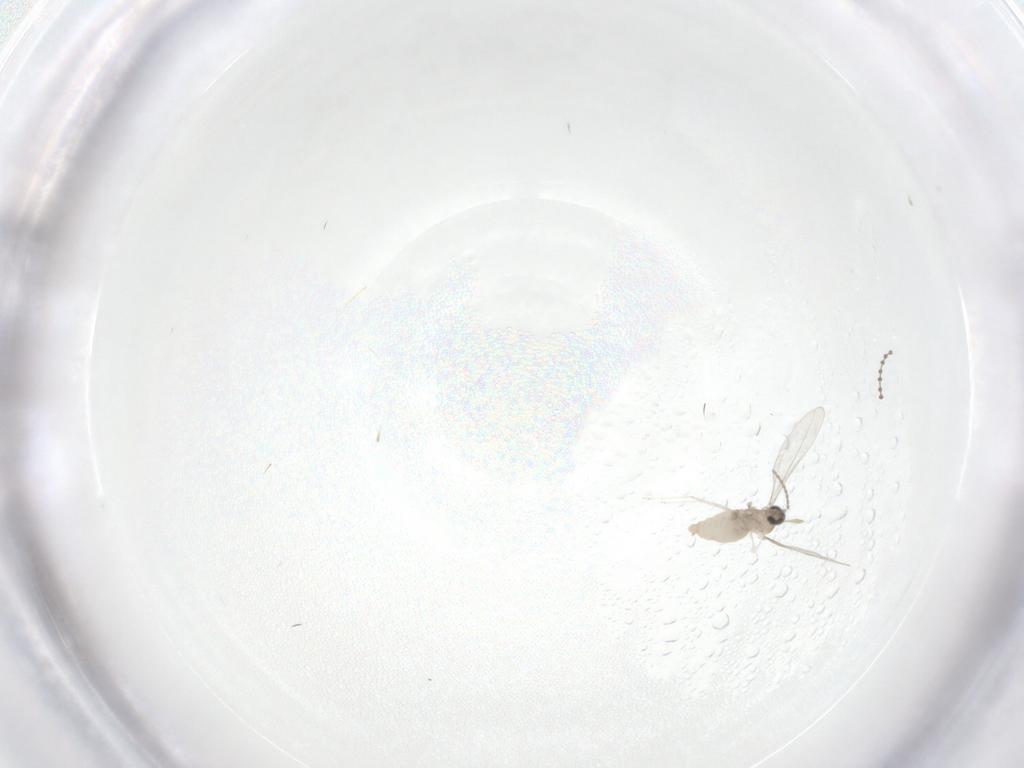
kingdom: Animalia
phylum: Arthropoda
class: Insecta
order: Diptera
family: Cecidomyiidae
